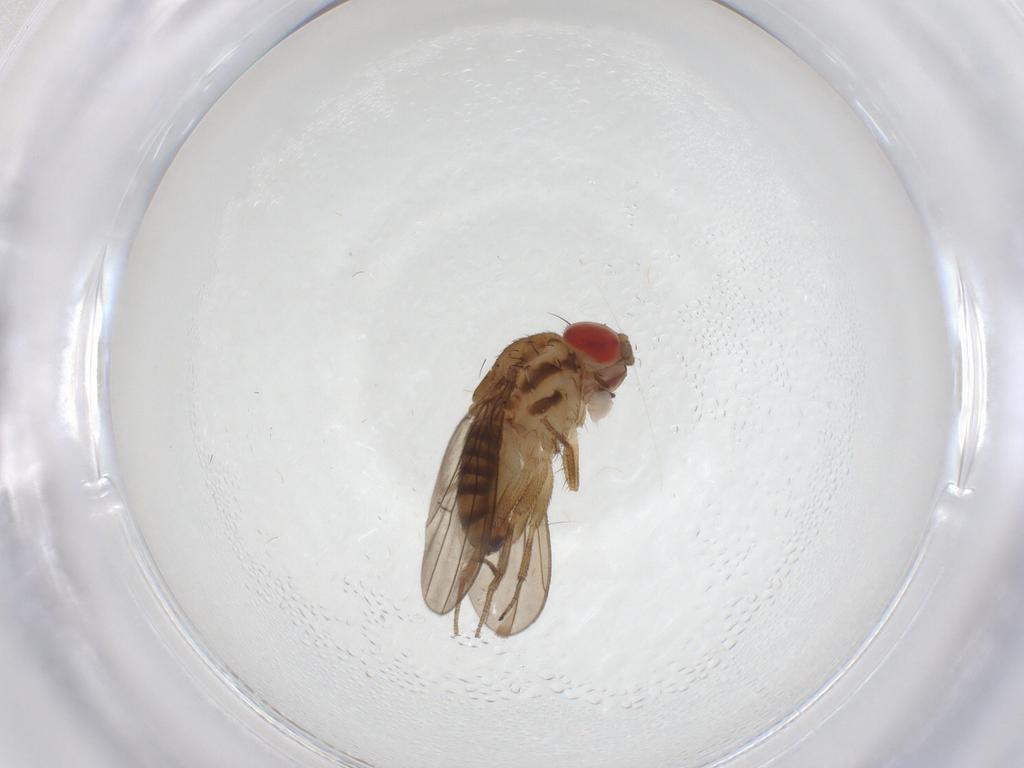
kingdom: Animalia
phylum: Arthropoda
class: Insecta
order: Diptera
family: Drosophilidae
